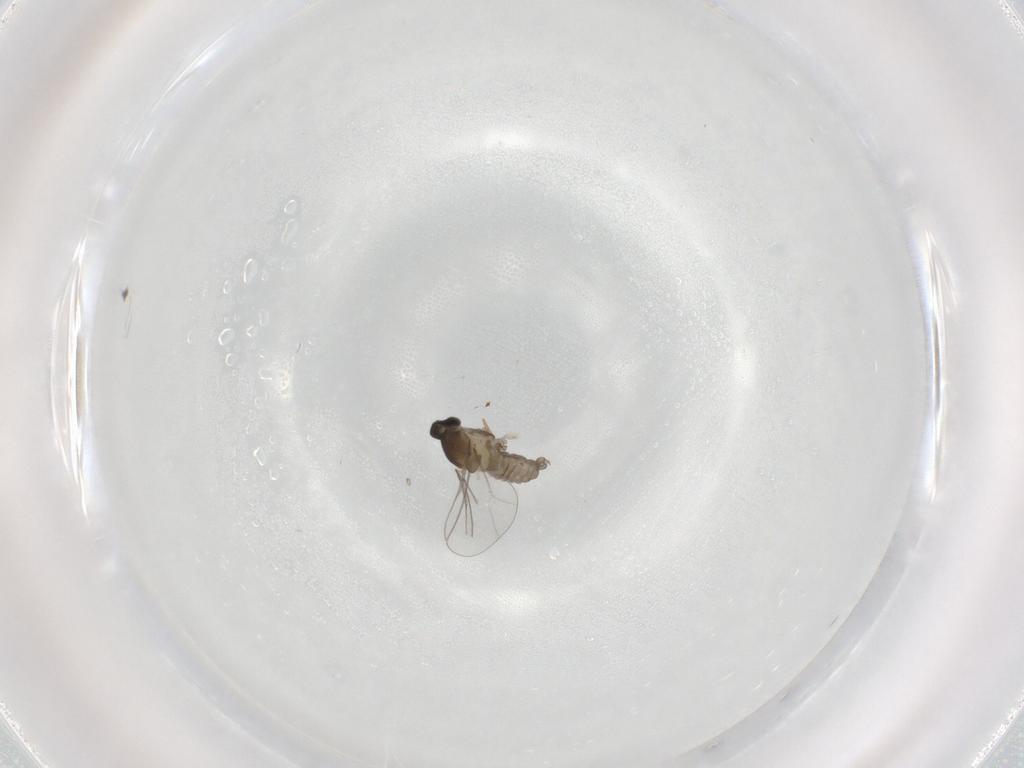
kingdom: Animalia
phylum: Arthropoda
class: Insecta
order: Diptera
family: Cecidomyiidae
